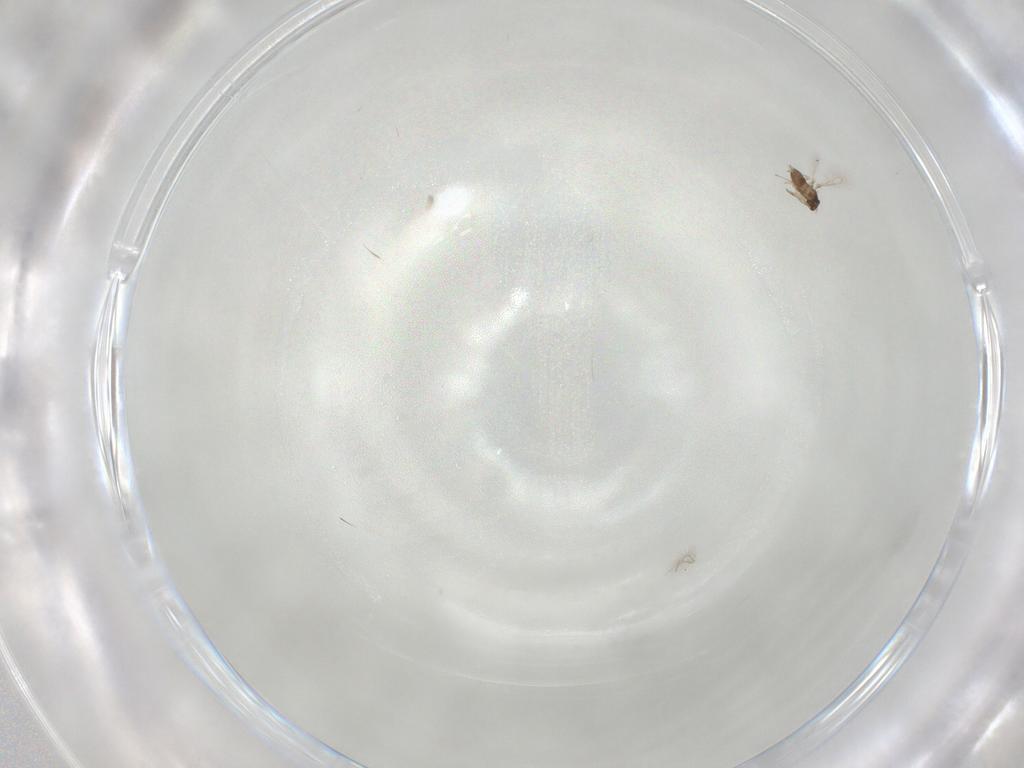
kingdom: Animalia
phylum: Arthropoda
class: Insecta
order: Hymenoptera
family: Mymaridae
